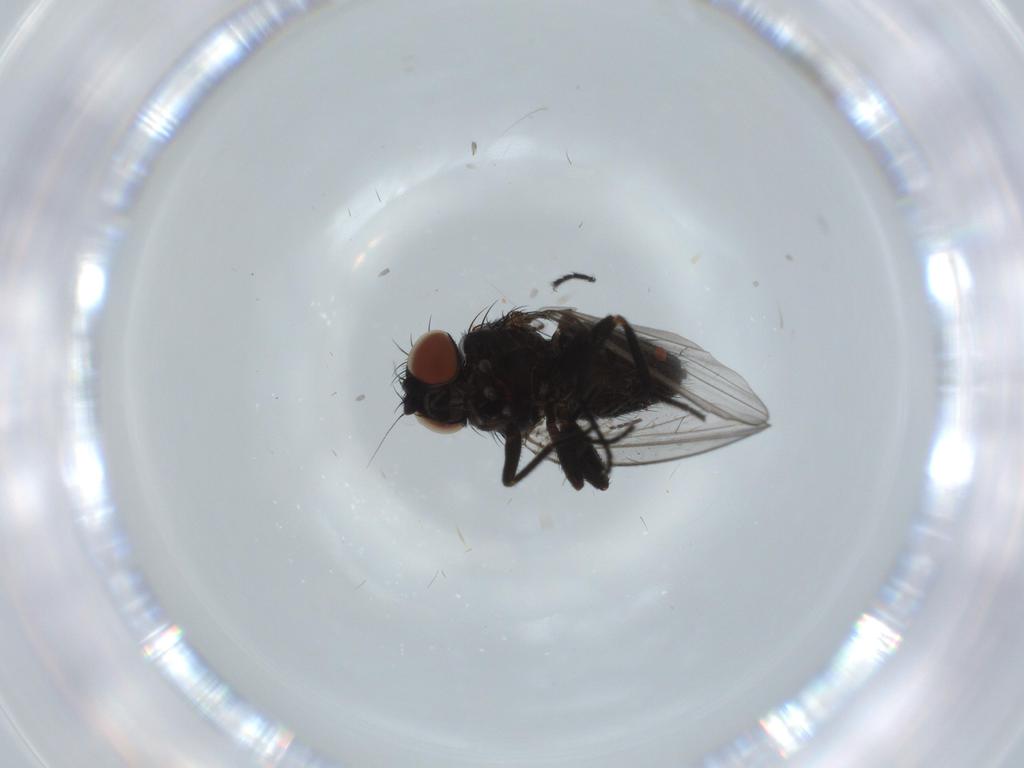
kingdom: Animalia
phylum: Arthropoda
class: Insecta
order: Diptera
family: Milichiidae
